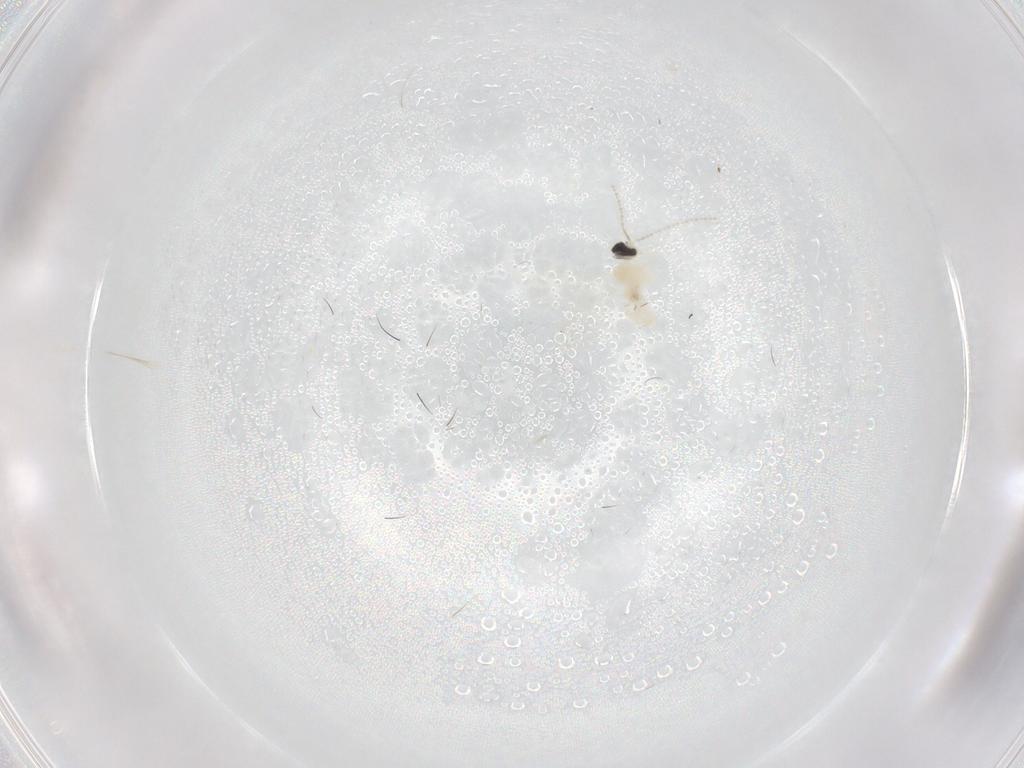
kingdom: Animalia
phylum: Arthropoda
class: Insecta
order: Diptera
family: Cecidomyiidae
